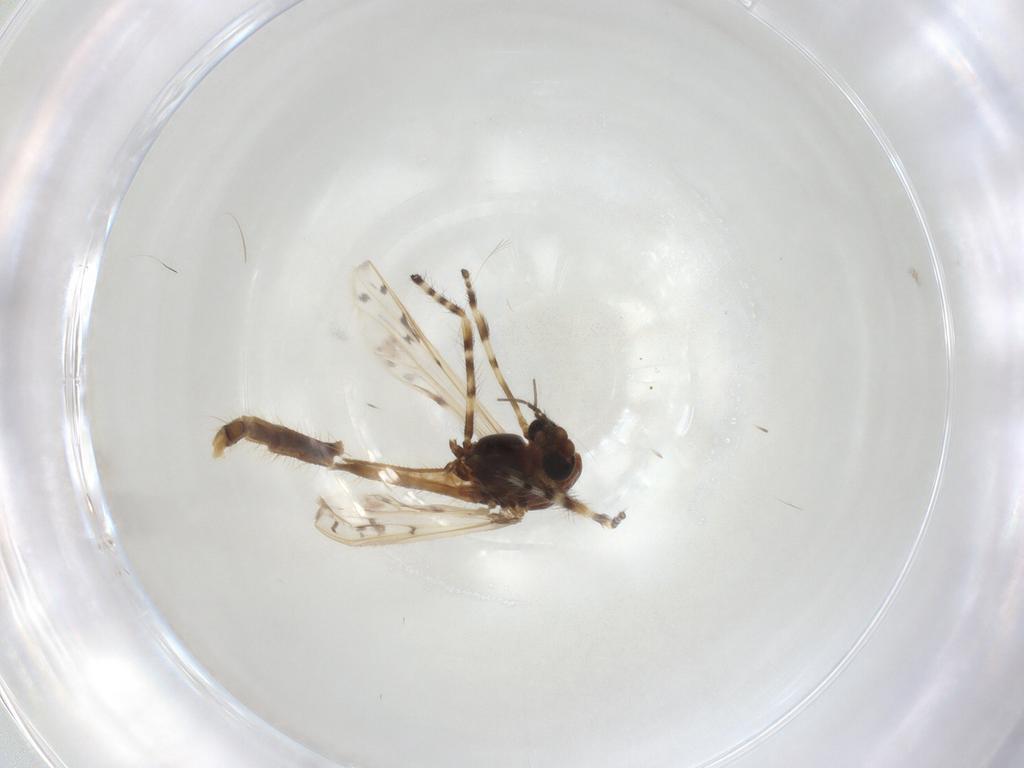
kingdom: Animalia
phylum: Arthropoda
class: Insecta
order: Diptera
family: Chironomidae
